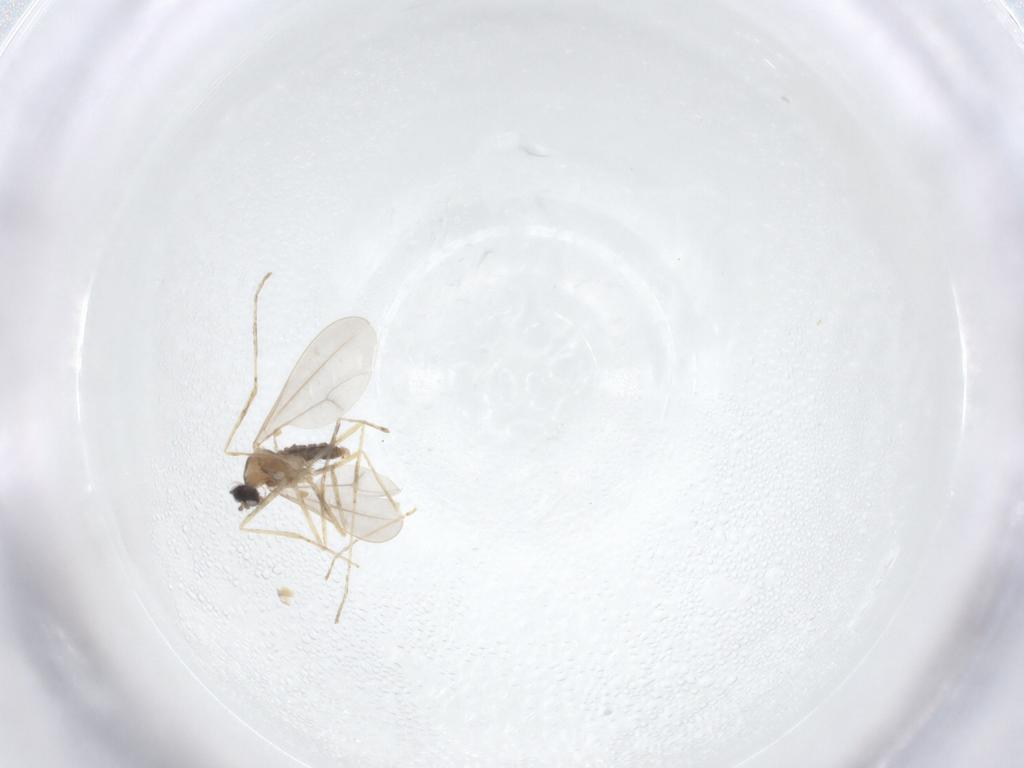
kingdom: Animalia
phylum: Arthropoda
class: Insecta
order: Diptera
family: Cecidomyiidae
